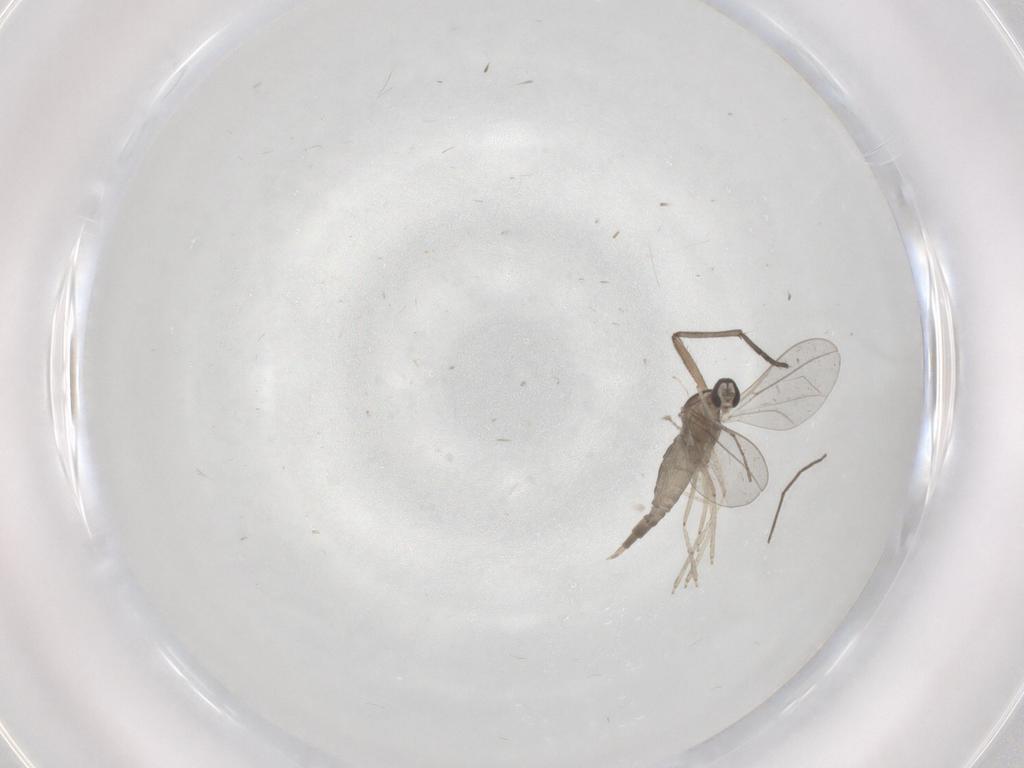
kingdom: Animalia
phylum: Arthropoda
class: Insecta
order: Diptera
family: Cecidomyiidae
